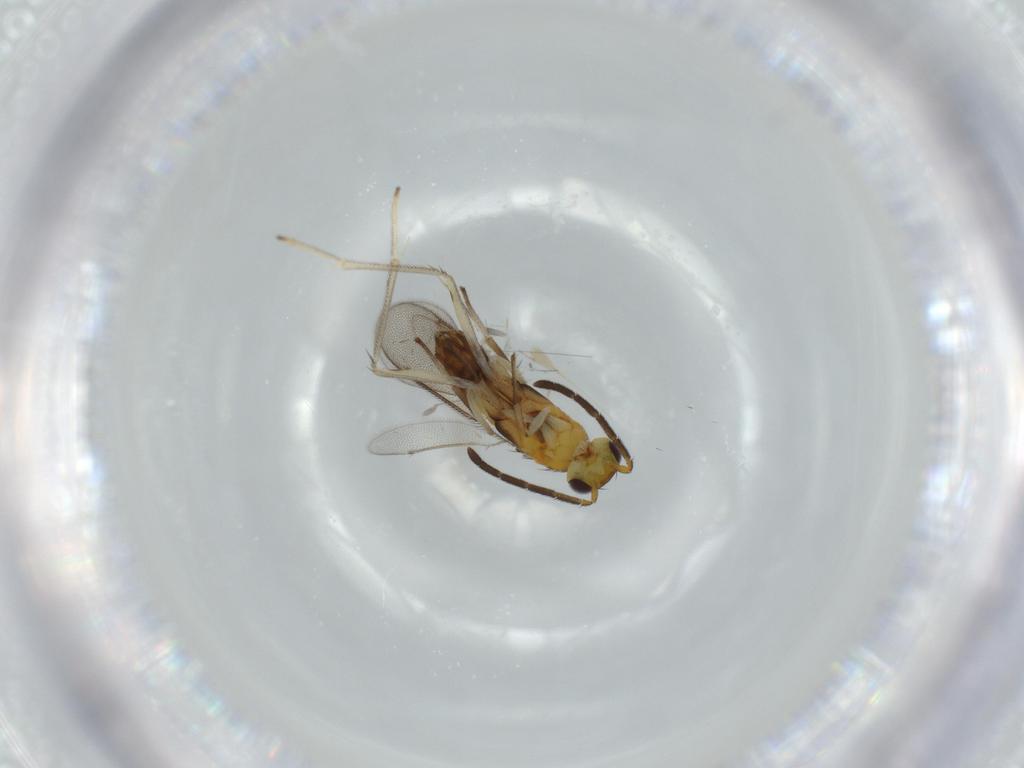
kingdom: Animalia
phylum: Arthropoda
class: Insecta
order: Hymenoptera
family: Aphelinidae
